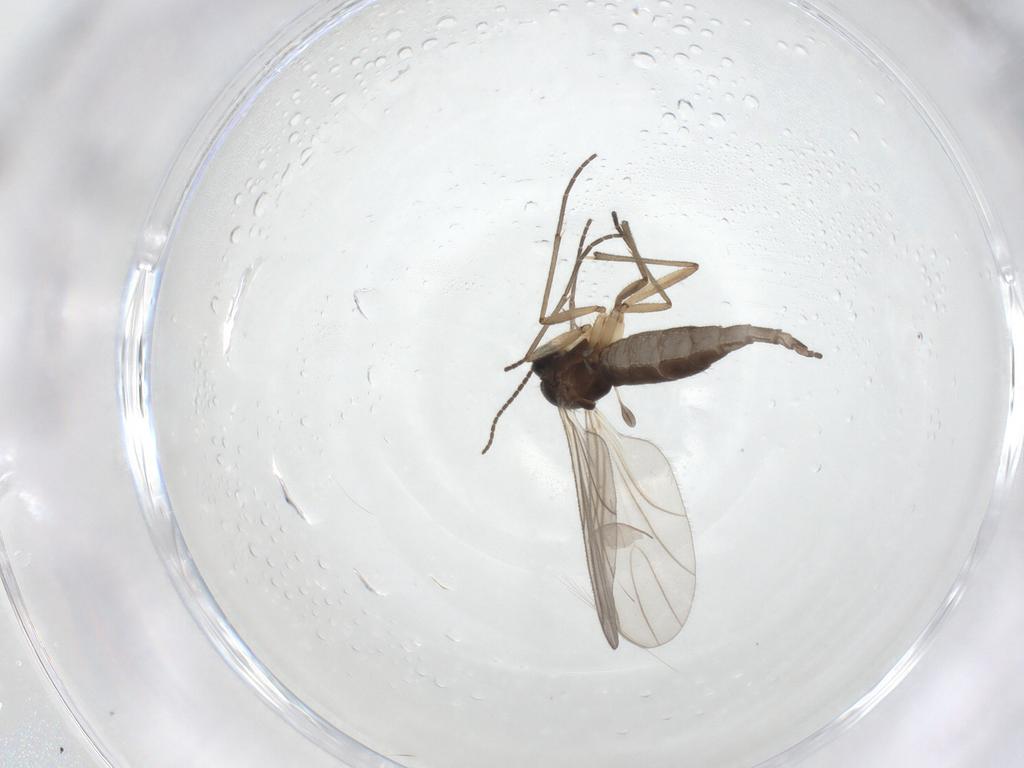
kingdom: Animalia
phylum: Arthropoda
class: Insecta
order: Diptera
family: Sciaridae
